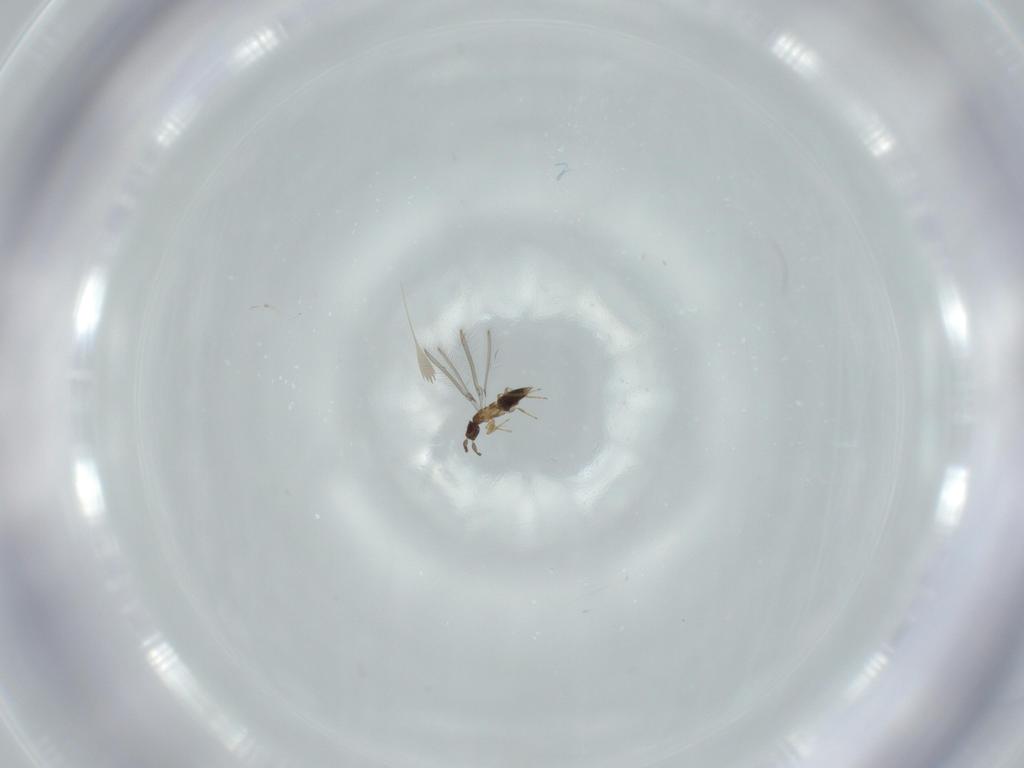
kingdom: Animalia
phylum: Arthropoda
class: Insecta
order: Hymenoptera
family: Mymaridae
